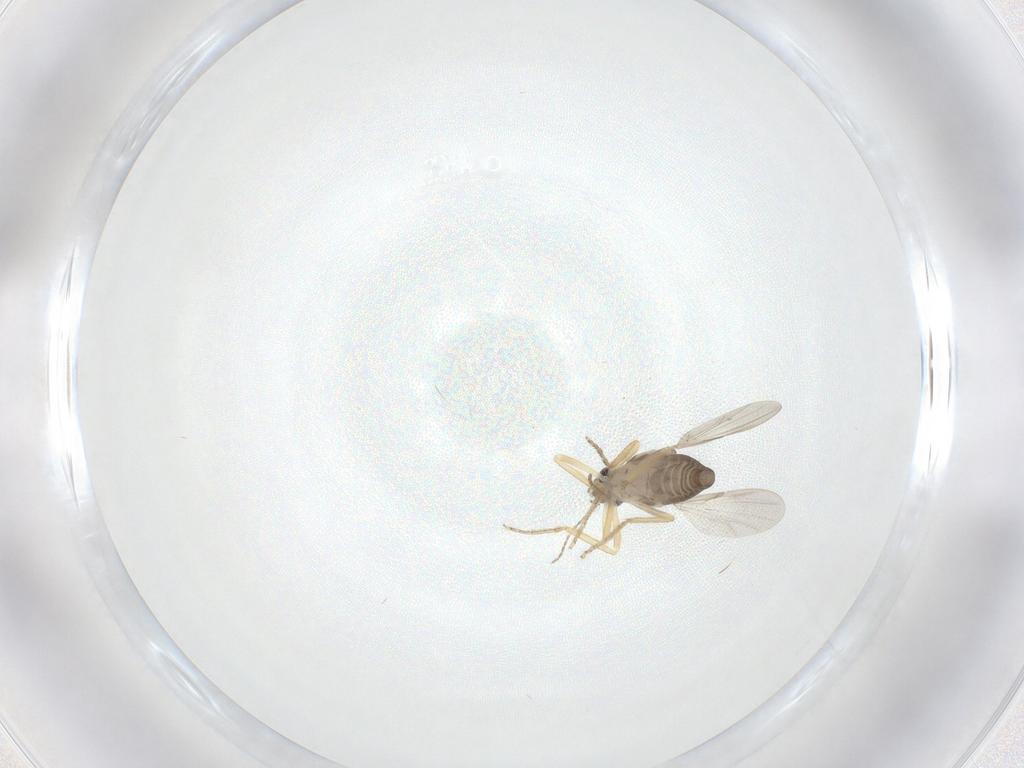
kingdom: Animalia
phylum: Arthropoda
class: Insecta
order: Diptera
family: Ceratopogonidae
